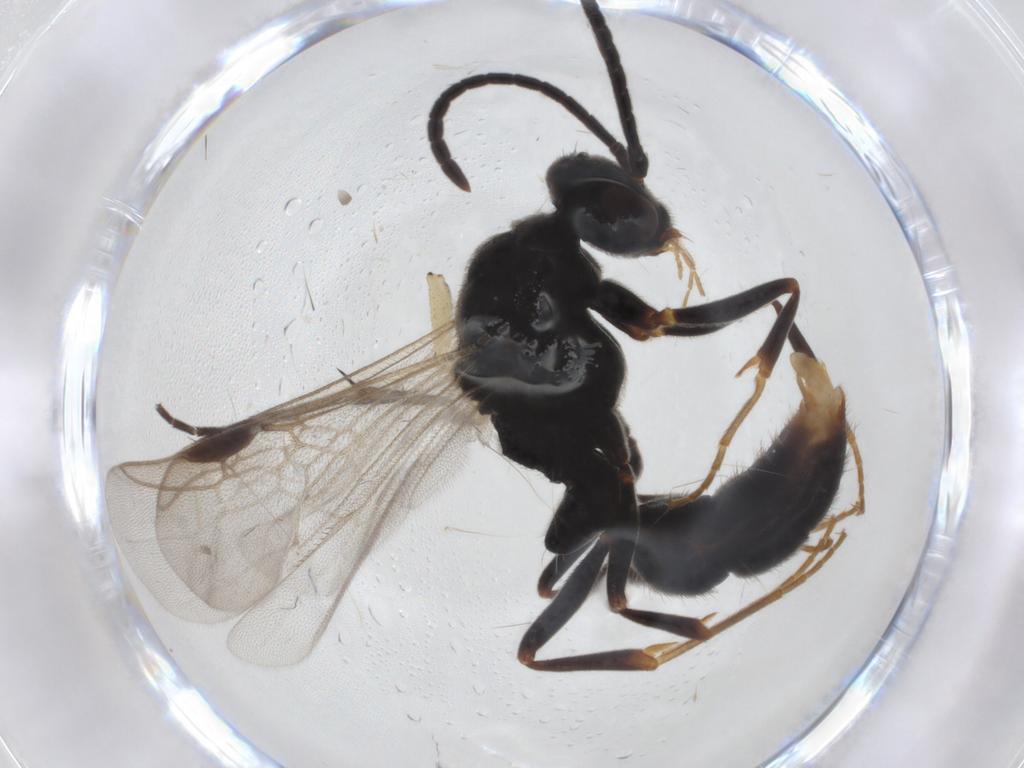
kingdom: Animalia
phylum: Arthropoda
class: Insecta
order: Hymenoptera
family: Formicidae
